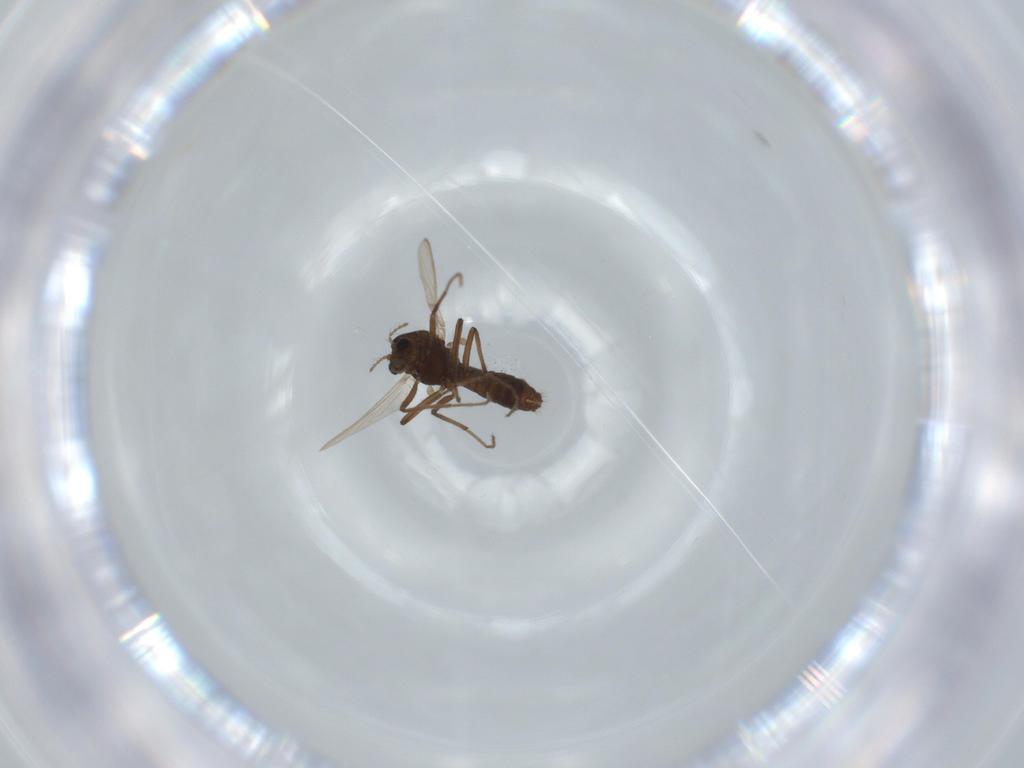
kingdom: Animalia
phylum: Arthropoda
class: Insecta
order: Diptera
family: Chironomidae
